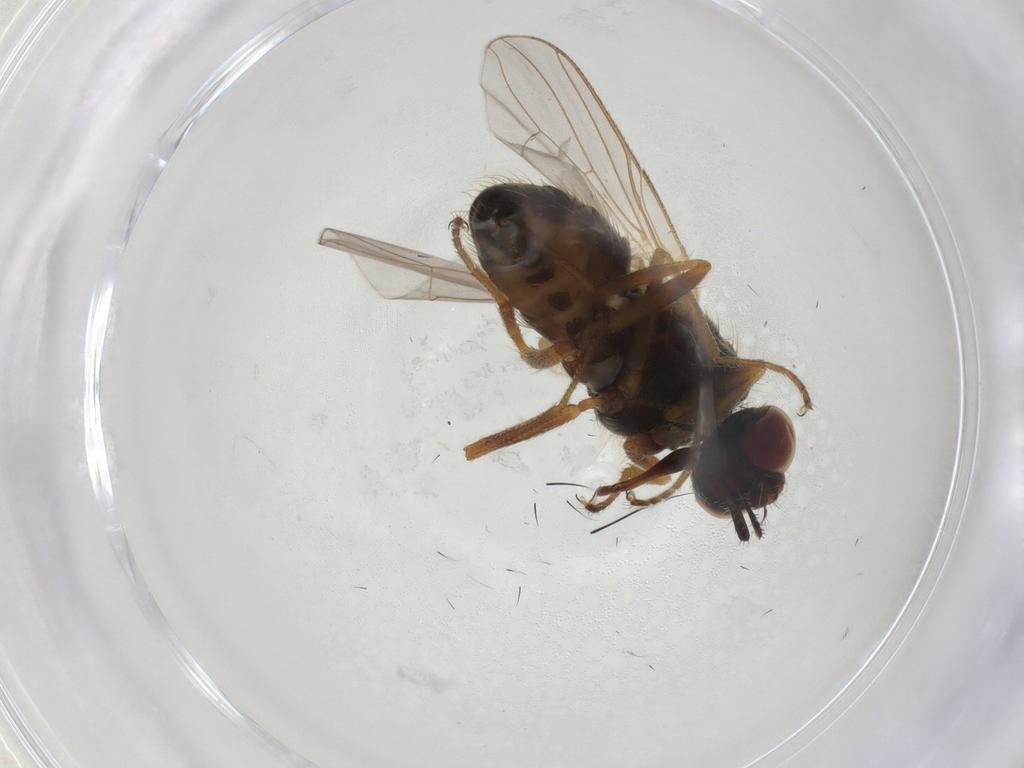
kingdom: Animalia
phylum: Arthropoda
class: Insecta
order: Diptera
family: Muscidae
